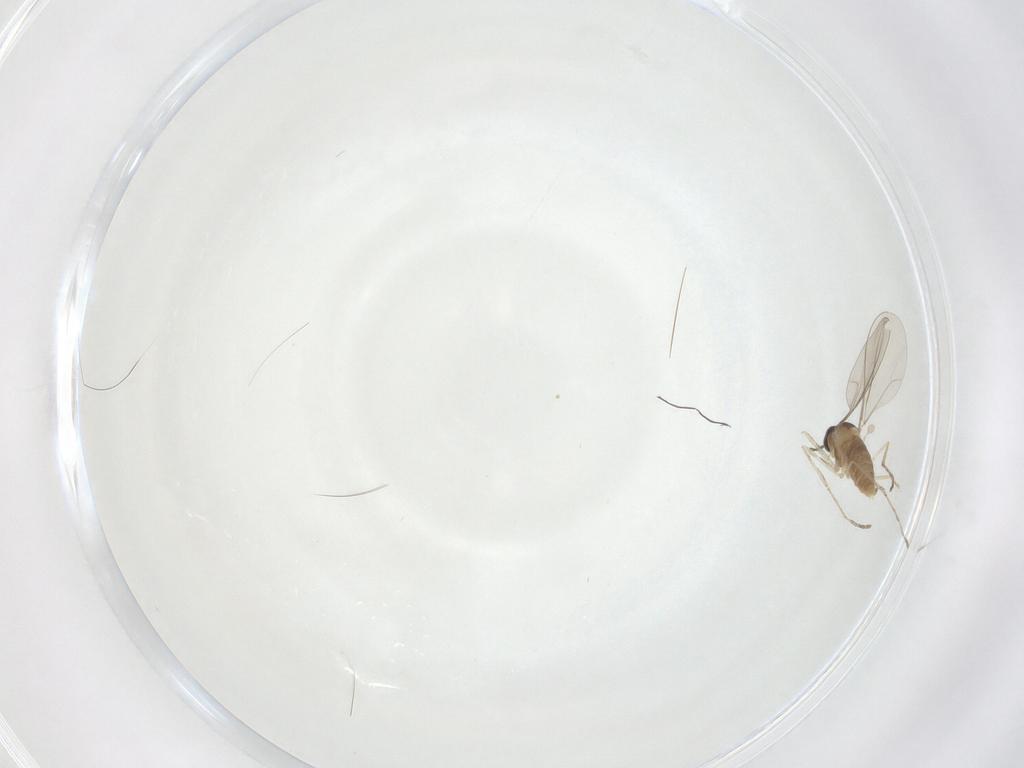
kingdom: Animalia
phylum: Arthropoda
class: Insecta
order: Diptera
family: Cecidomyiidae
